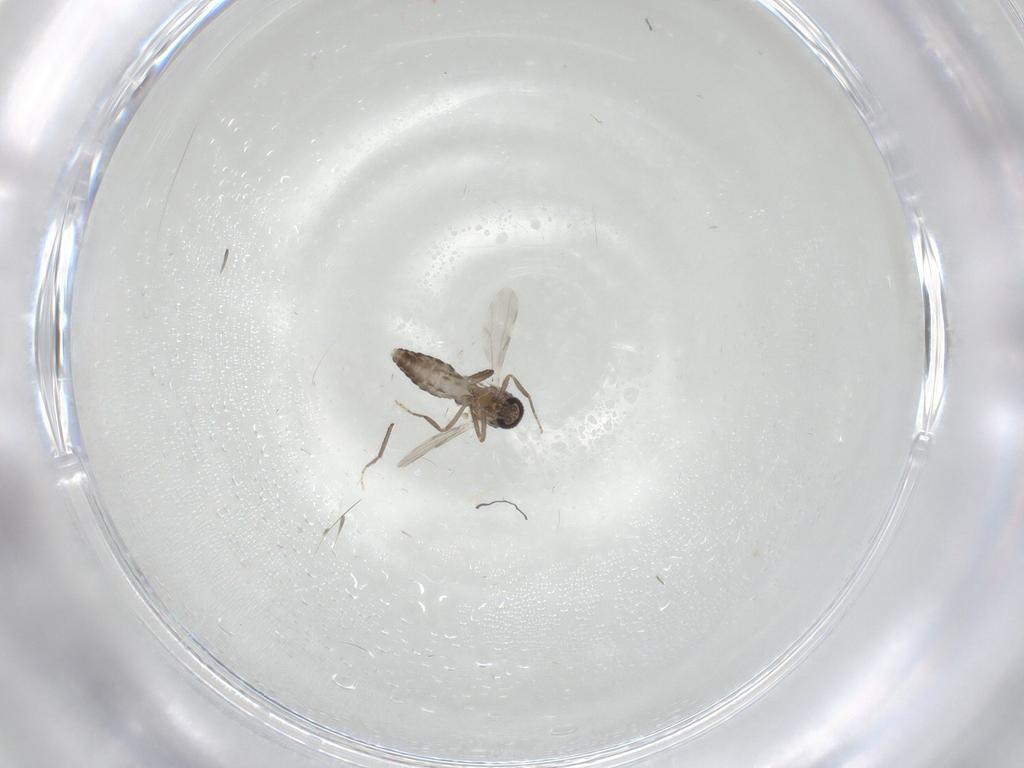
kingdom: Animalia
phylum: Arthropoda
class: Insecta
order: Diptera
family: Ceratopogonidae
